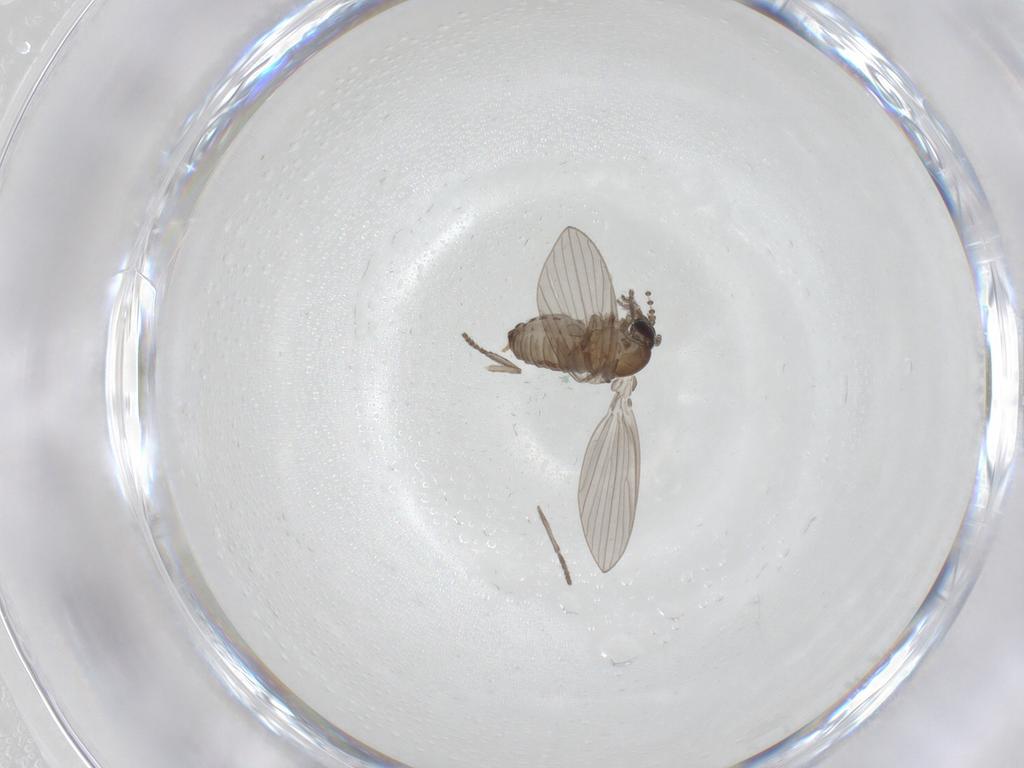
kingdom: Animalia
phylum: Arthropoda
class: Insecta
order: Diptera
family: Psychodidae
